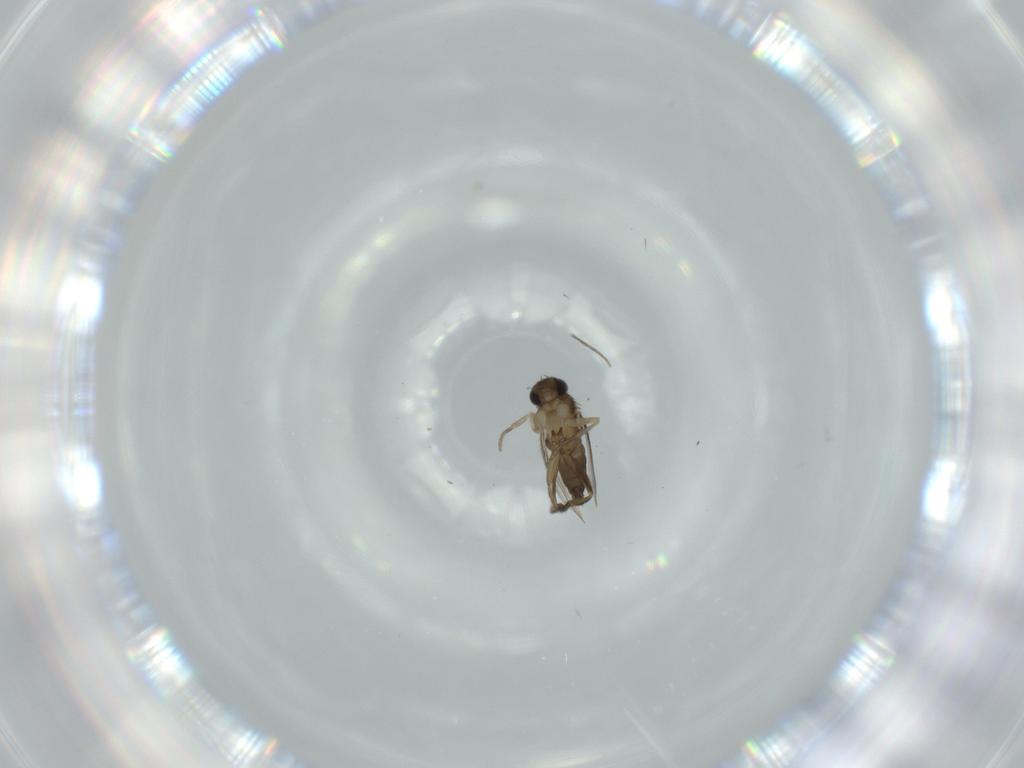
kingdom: Animalia
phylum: Arthropoda
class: Insecta
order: Diptera
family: Phoridae
